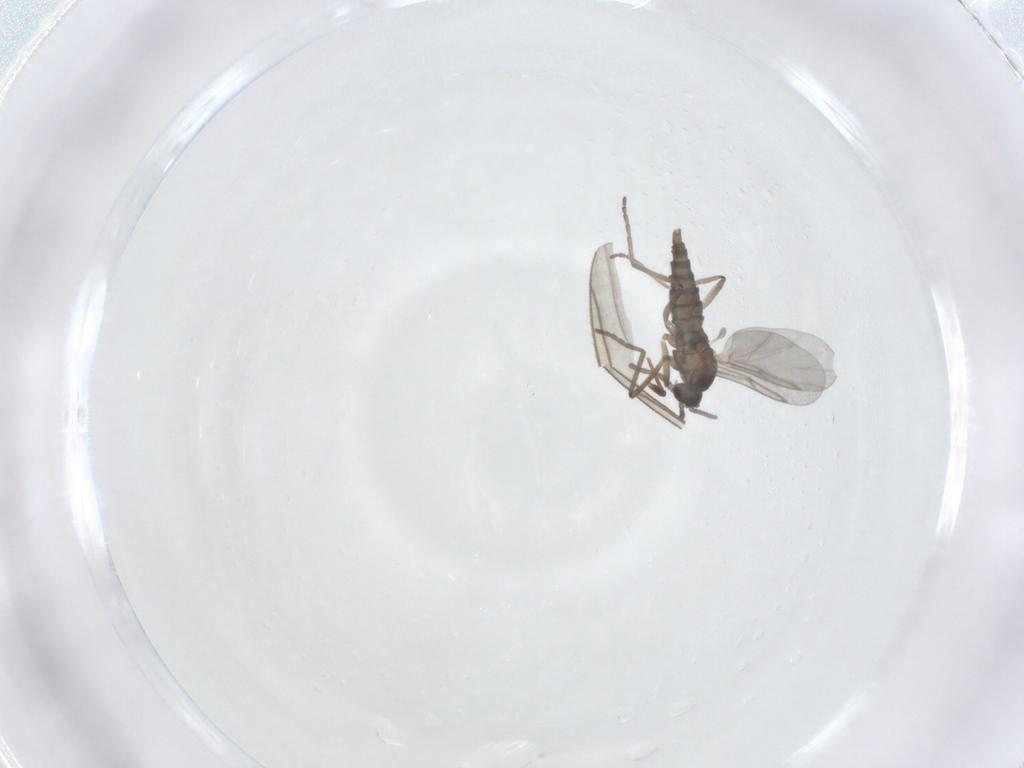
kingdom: Animalia
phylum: Arthropoda
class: Insecta
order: Diptera
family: Cecidomyiidae
